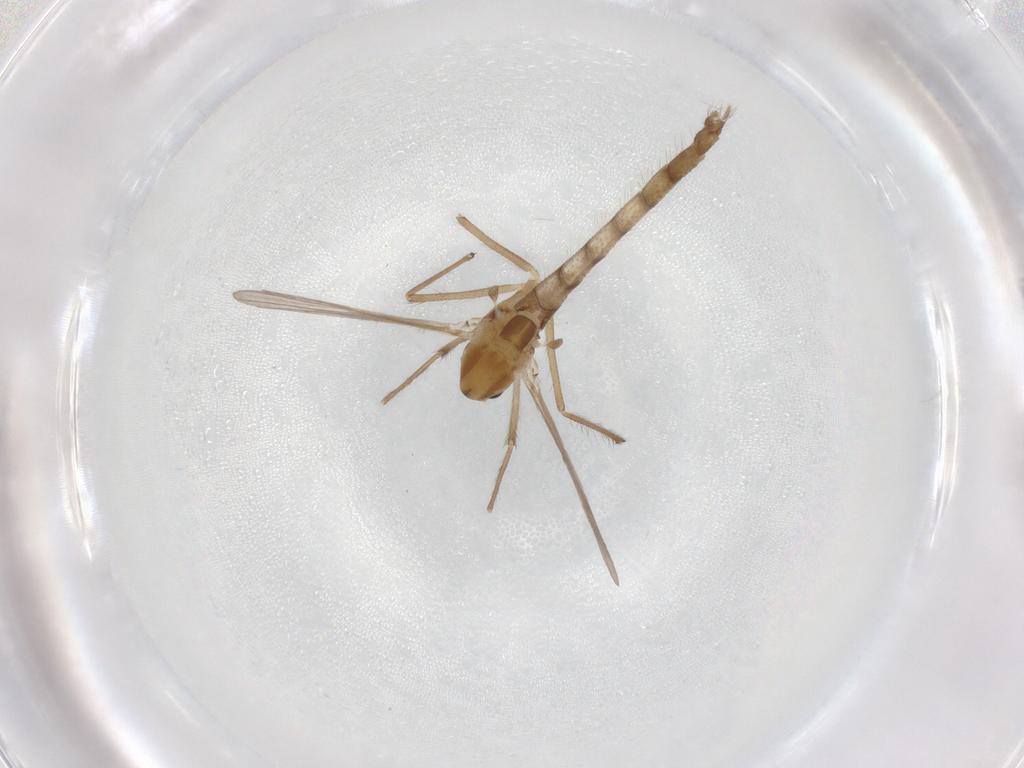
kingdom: Animalia
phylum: Arthropoda
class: Insecta
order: Diptera
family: Chironomidae
